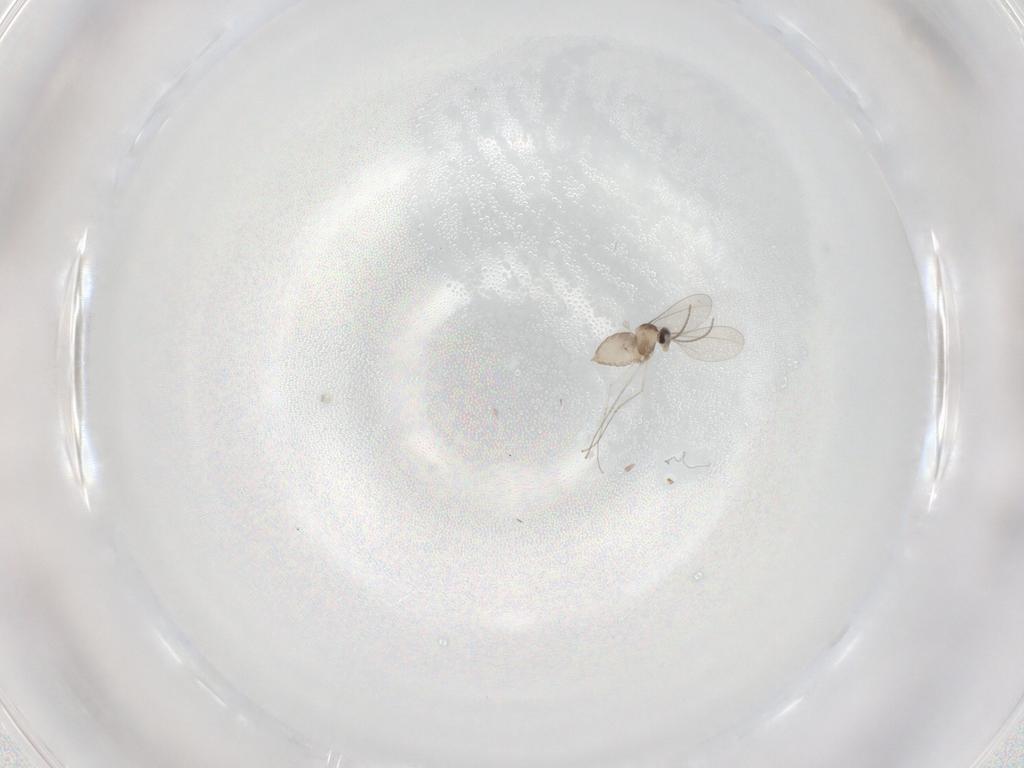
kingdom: Animalia
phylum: Arthropoda
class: Insecta
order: Diptera
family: Cecidomyiidae
